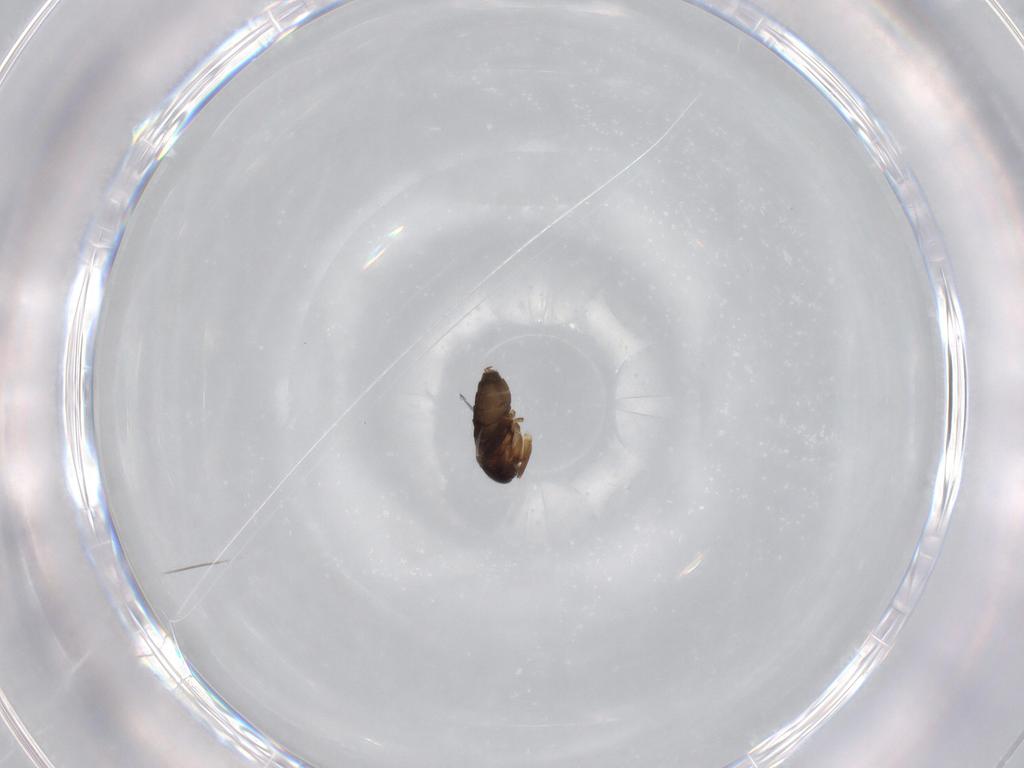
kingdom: Animalia
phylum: Arthropoda
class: Insecta
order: Diptera
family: Phoridae
